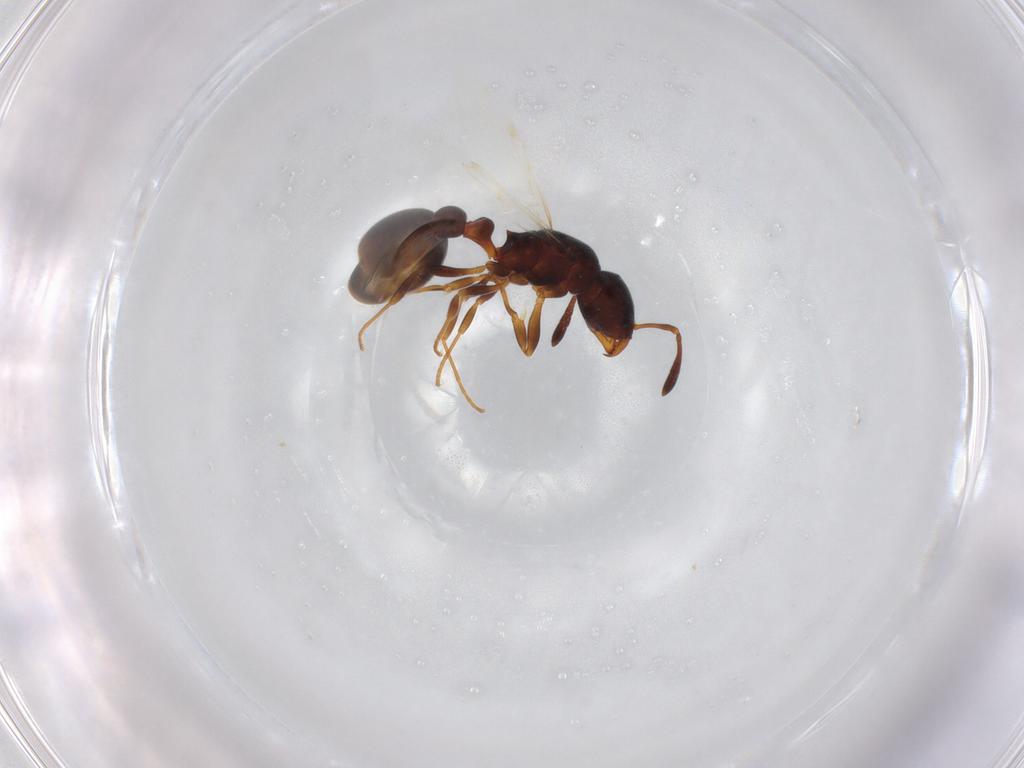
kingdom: Animalia
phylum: Arthropoda
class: Insecta
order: Hymenoptera
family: Formicidae
